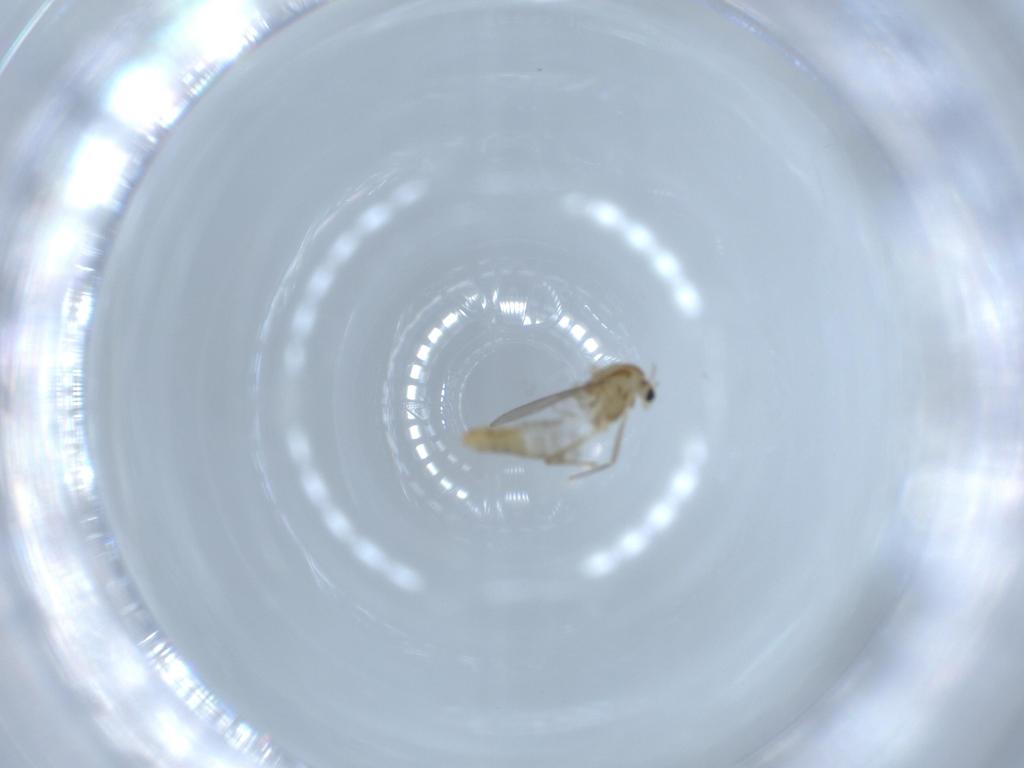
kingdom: Animalia
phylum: Arthropoda
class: Insecta
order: Diptera
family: Chironomidae
